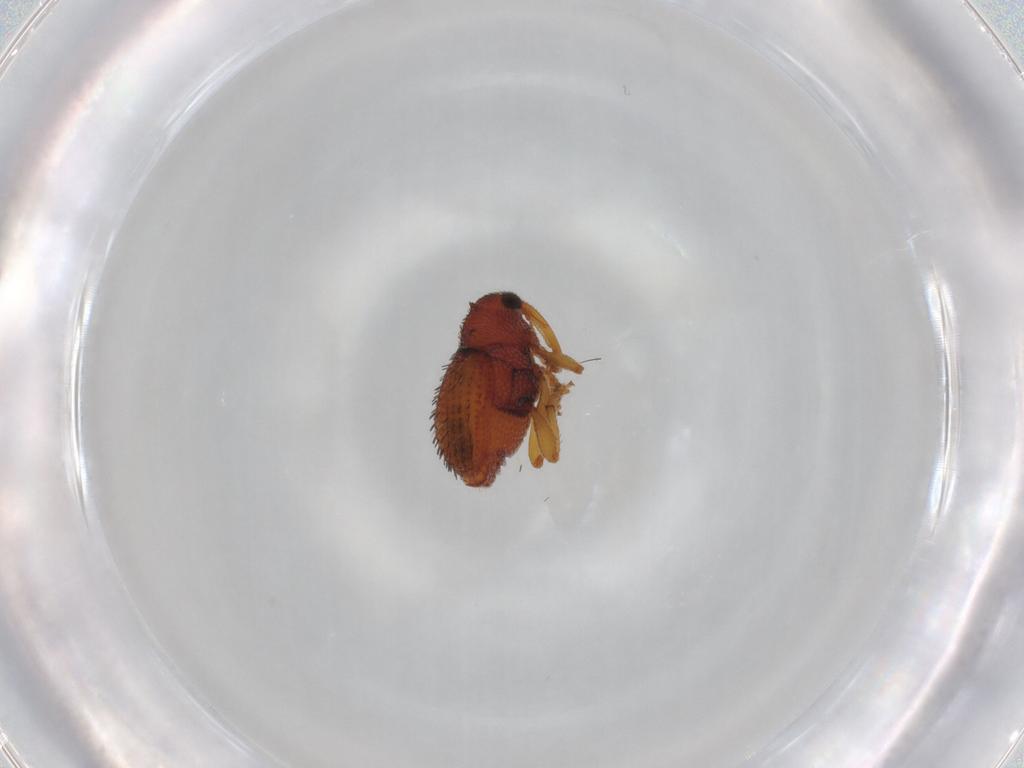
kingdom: Animalia
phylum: Arthropoda
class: Insecta
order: Coleoptera
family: Curculionidae
